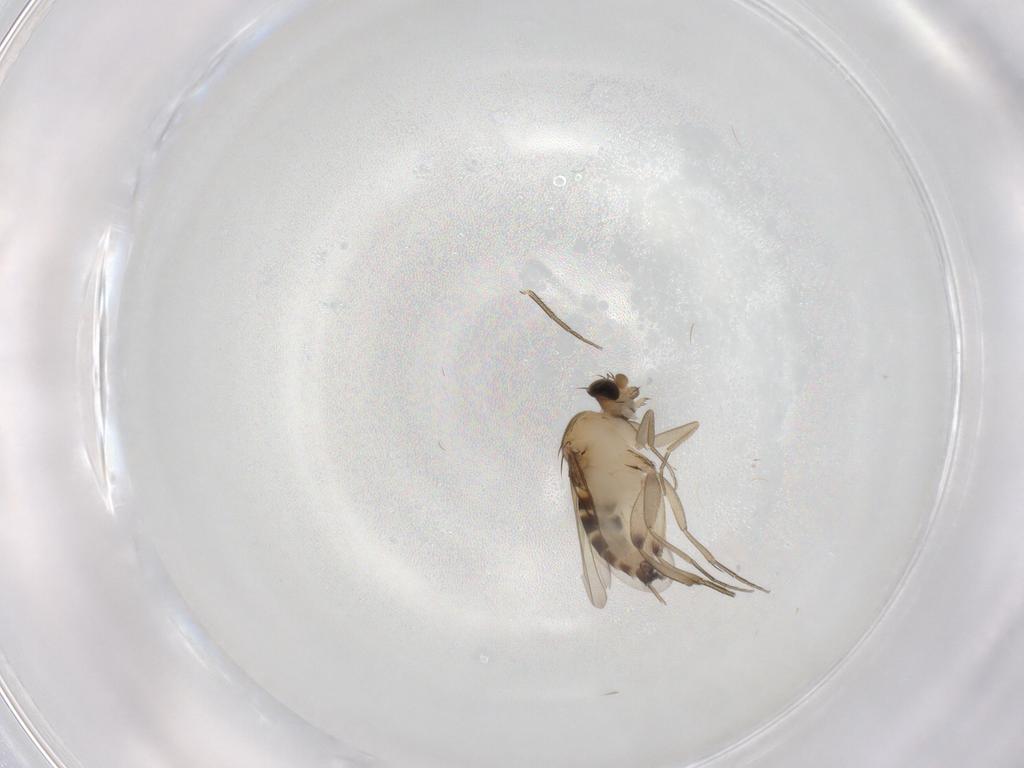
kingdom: Animalia
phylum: Arthropoda
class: Insecta
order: Diptera
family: Phoridae
